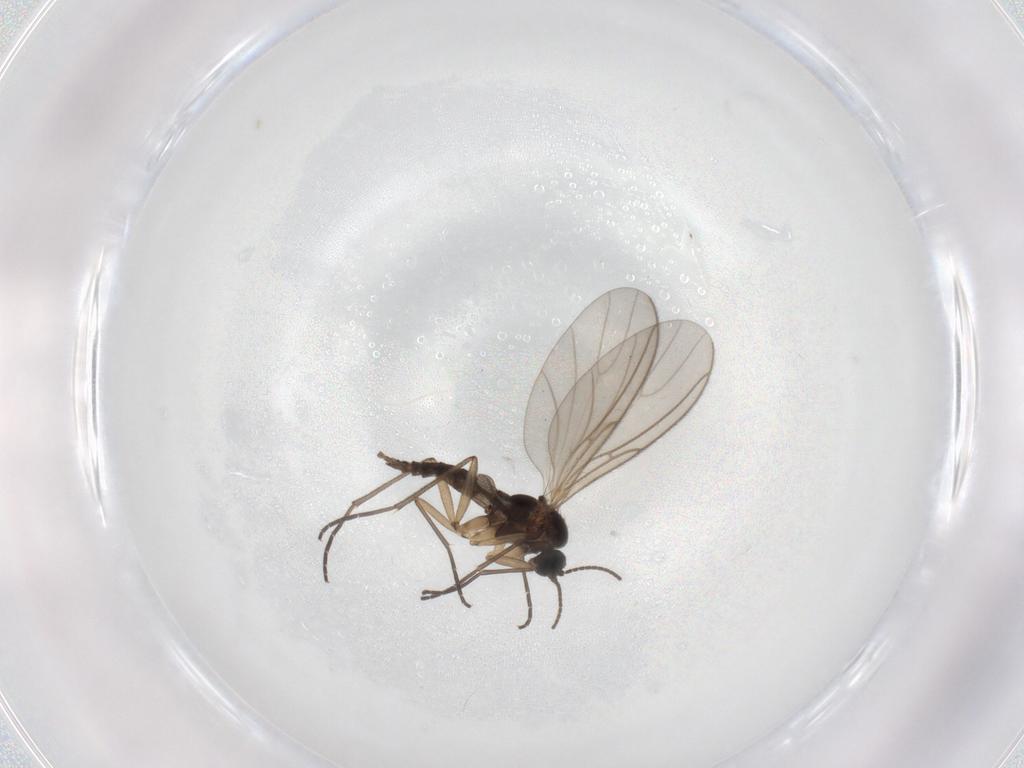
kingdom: Animalia
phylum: Arthropoda
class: Insecta
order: Diptera
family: Sciaridae
